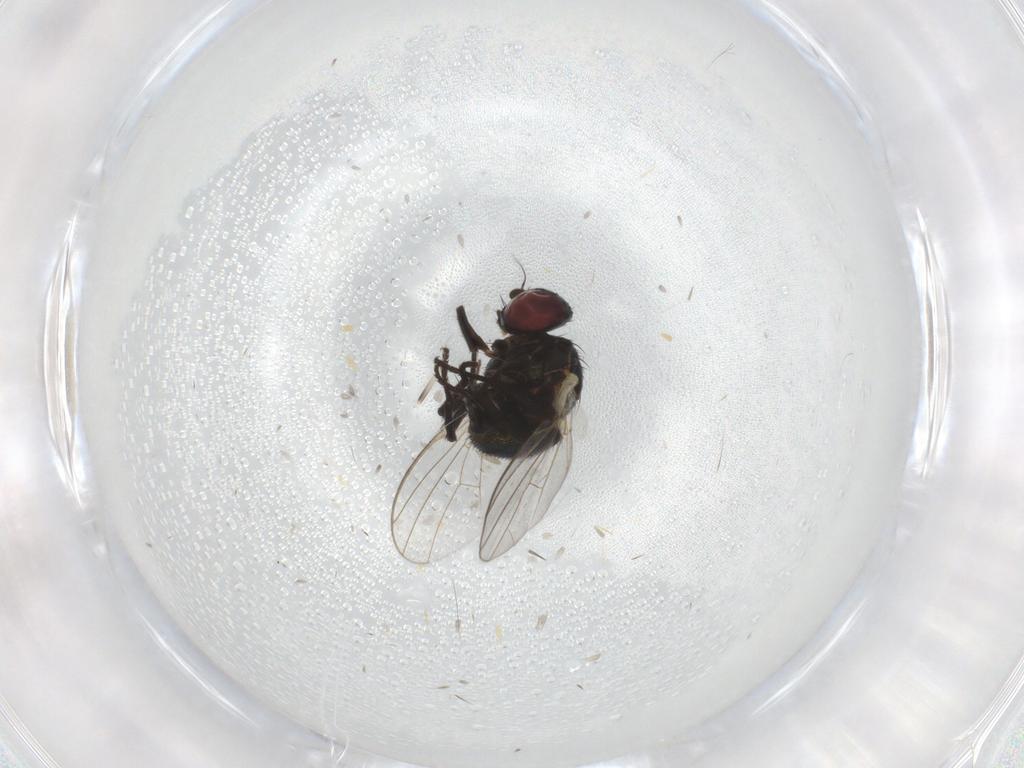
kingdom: Animalia
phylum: Arthropoda
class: Insecta
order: Diptera
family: Agromyzidae
